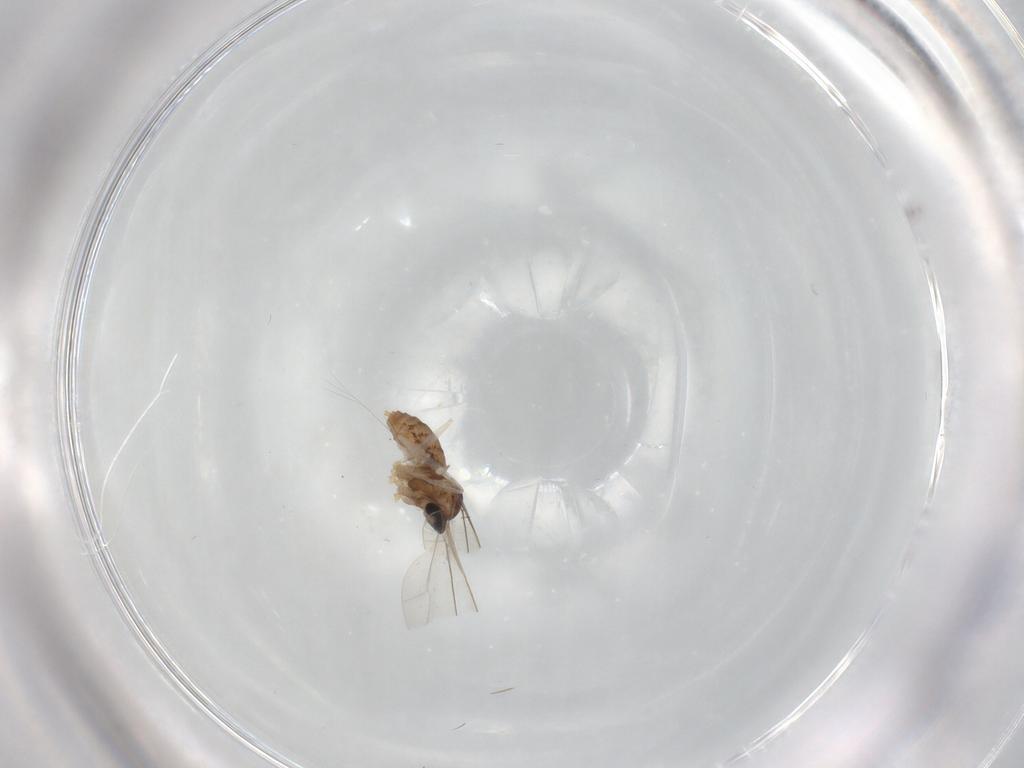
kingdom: Animalia
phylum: Arthropoda
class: Insecta
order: Diptera
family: Cecidomyiidae
